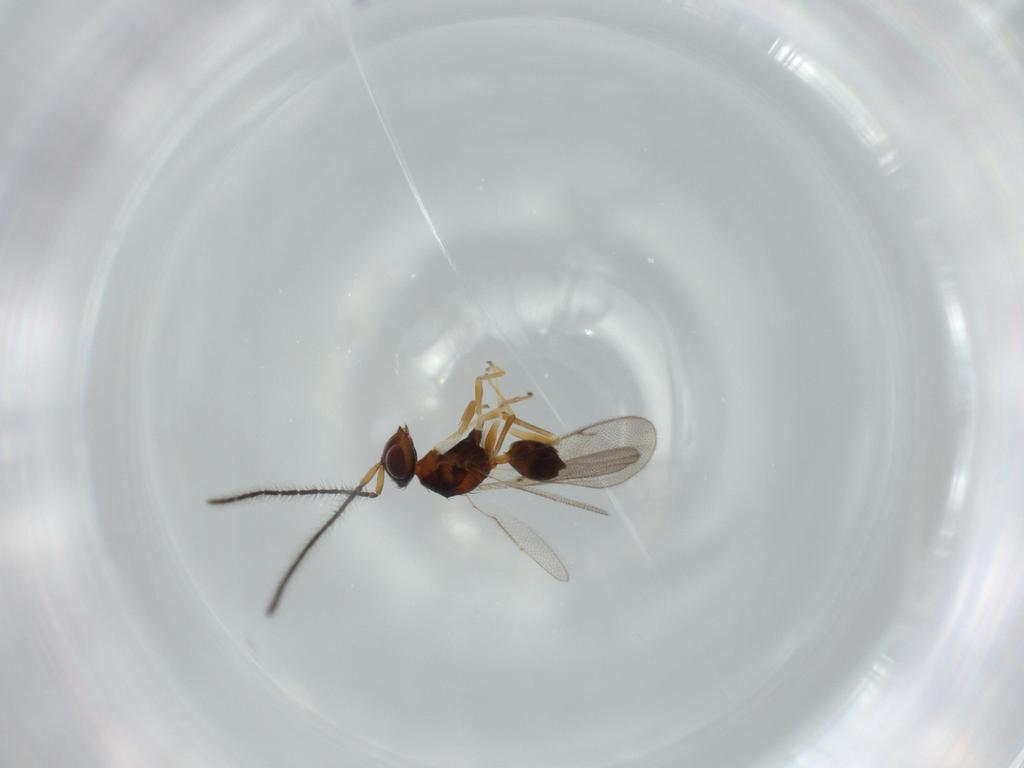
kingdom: Animalia
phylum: Arthropoda
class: Insecta
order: Hymenoptera
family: Diparidae
